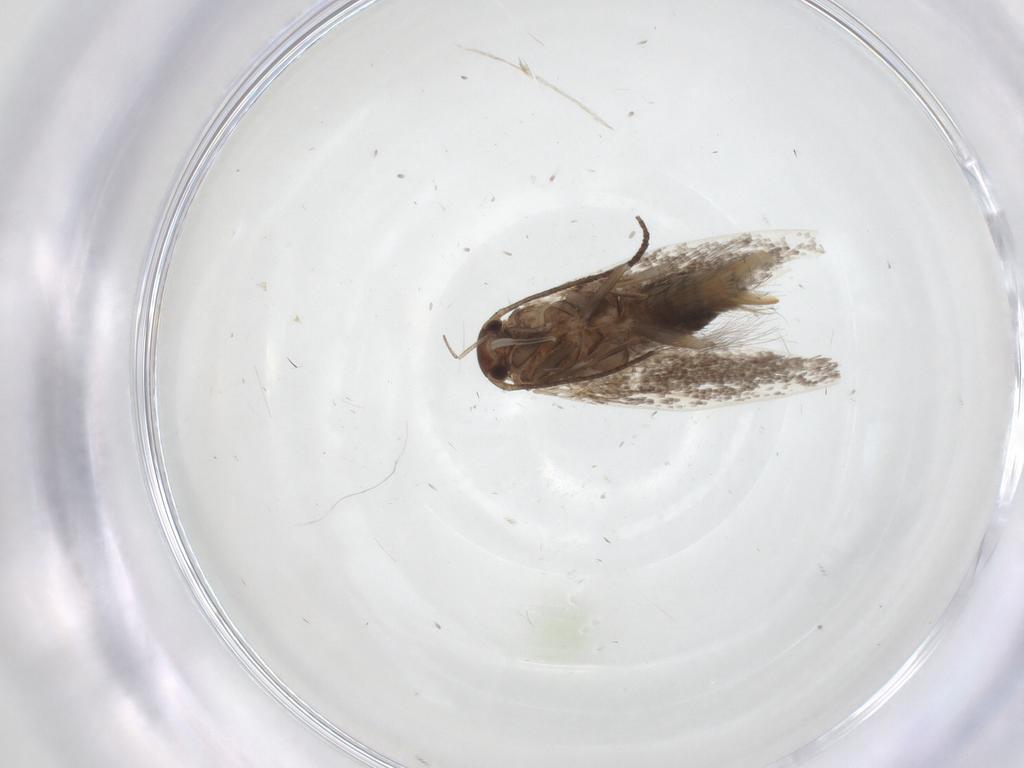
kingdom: Animalia
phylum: Arthropoda
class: Insecta
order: Lepidoptera
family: Elachistidae
